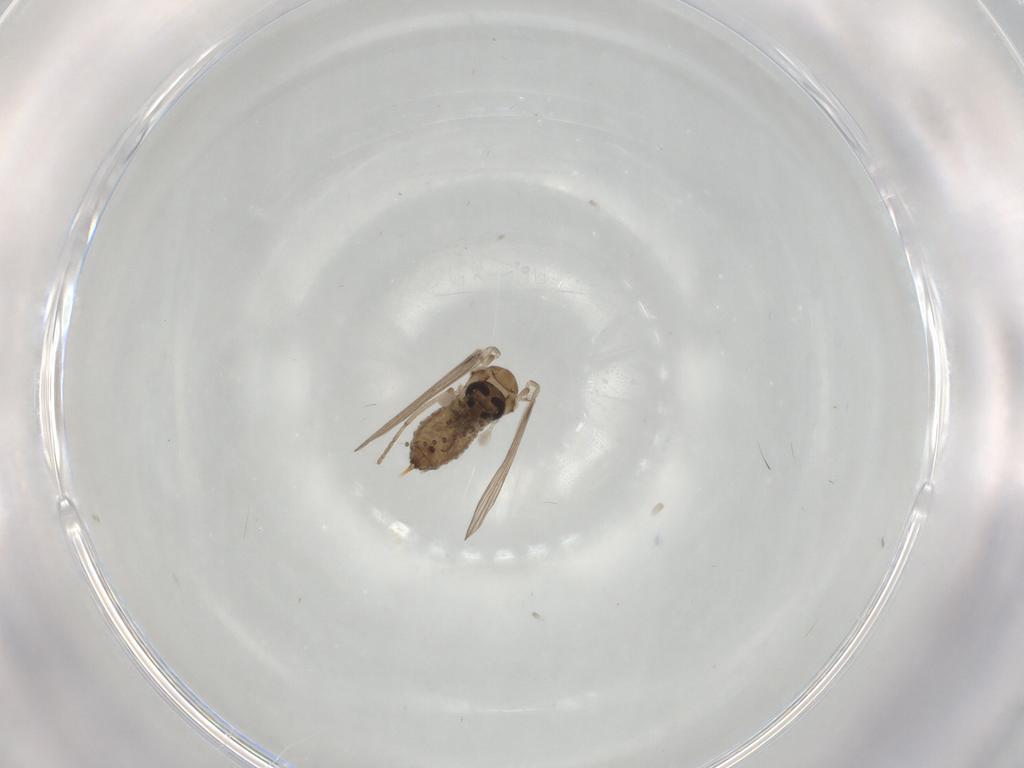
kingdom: Animalia
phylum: Arthropoda
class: Insecta
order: Diptera
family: Psychodidae
